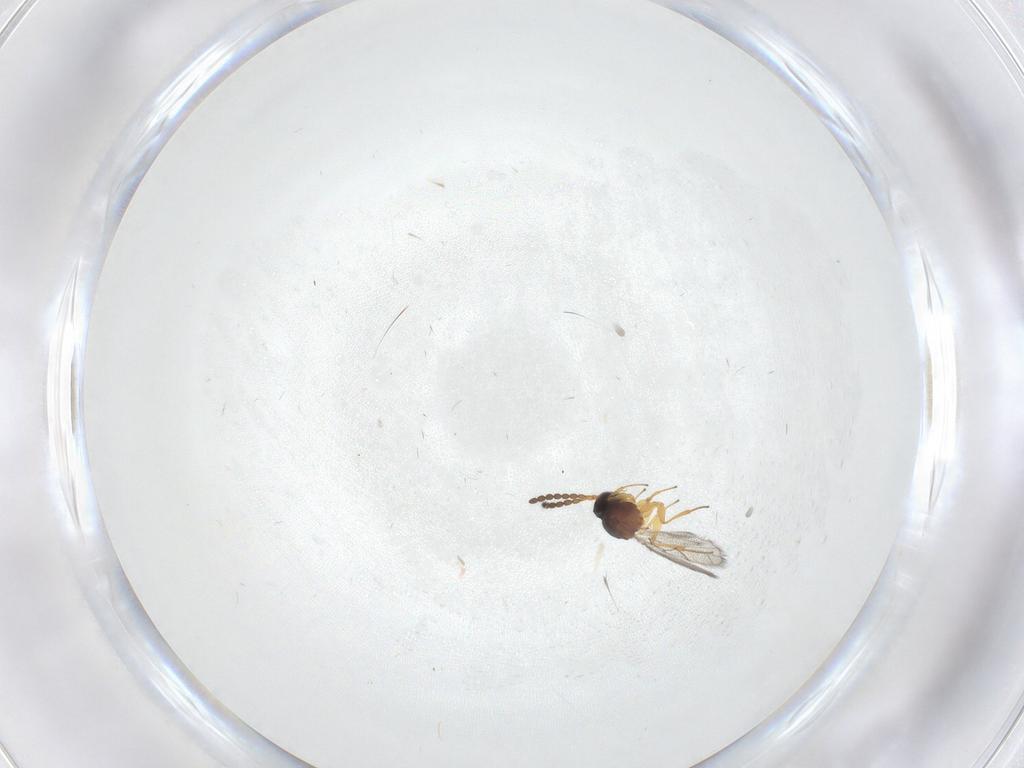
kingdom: Animalia
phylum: Arthropoda
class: Insecta
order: Hymenoptera
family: Figitidae
